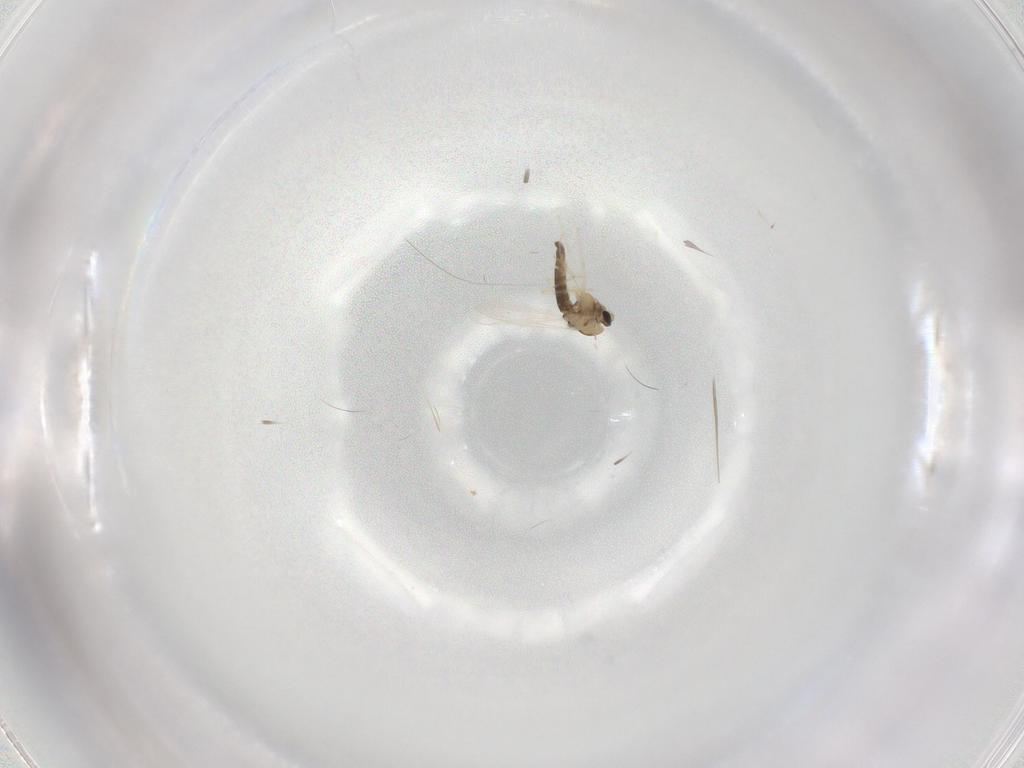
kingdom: Animalia
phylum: Arthropoda
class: Insecta
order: Diptera
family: Chironomidae
